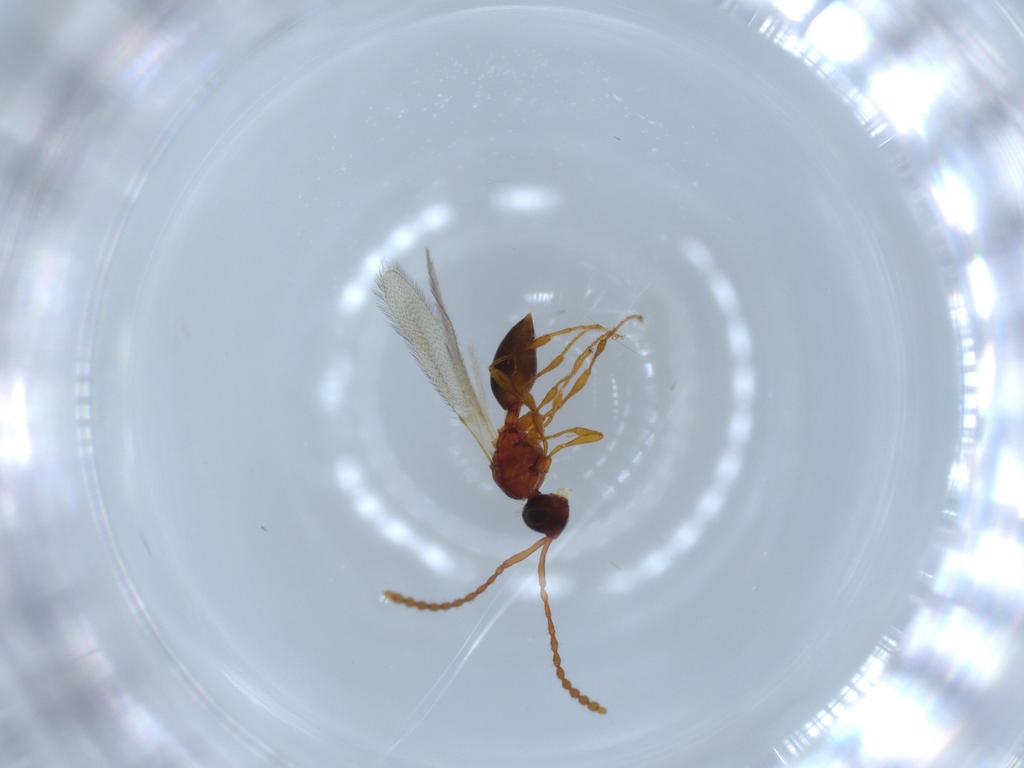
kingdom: Animalia
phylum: Arthropoda
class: Insecta
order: Hymenoptera
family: Diapriidae
